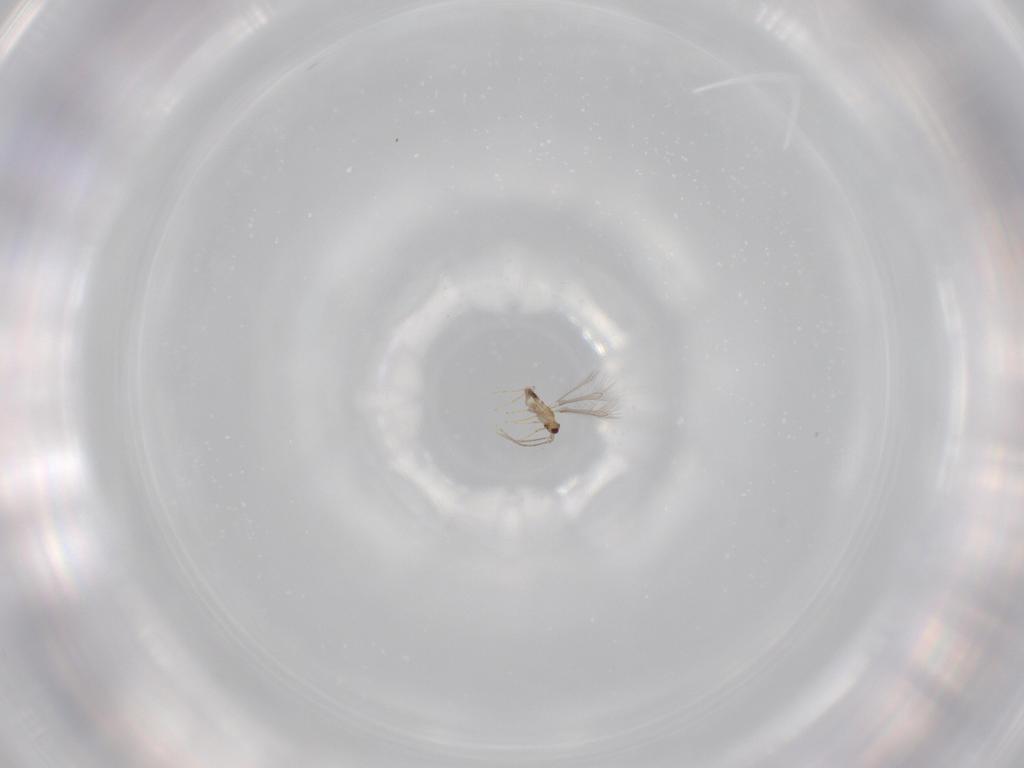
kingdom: Animalia
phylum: Arthropoda
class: Insecta
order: Hymenoptera
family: Mymaridae
